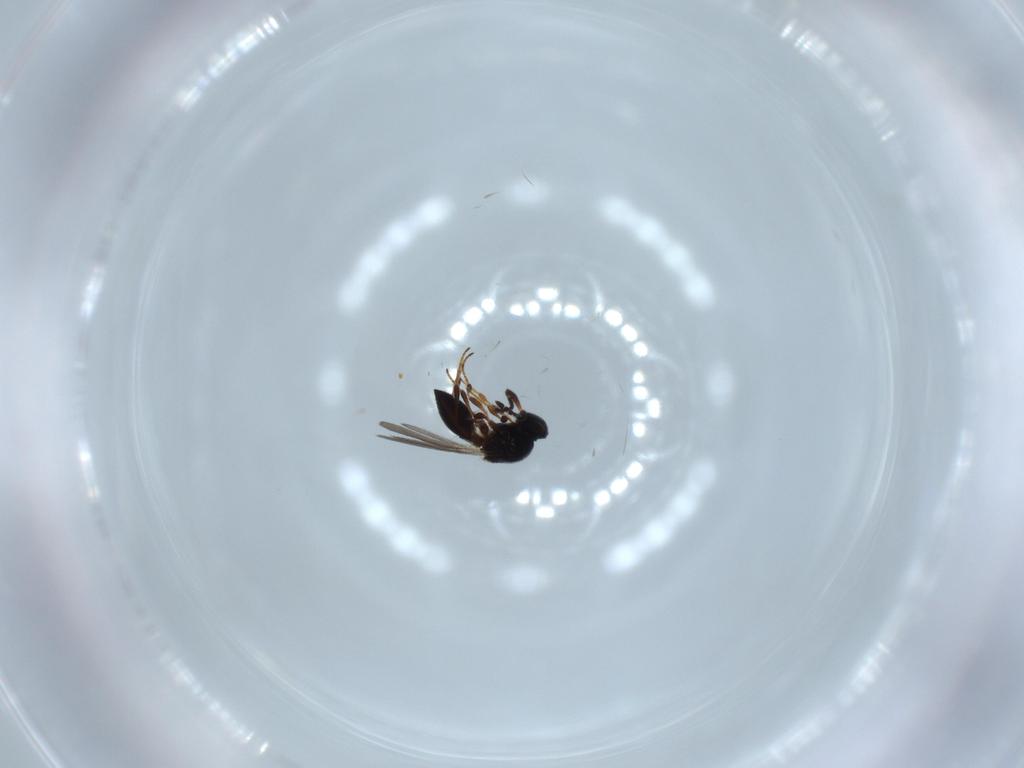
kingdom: Animalia
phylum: Arthropoda
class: Insecta
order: Hymenoptera
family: Platygastridae
